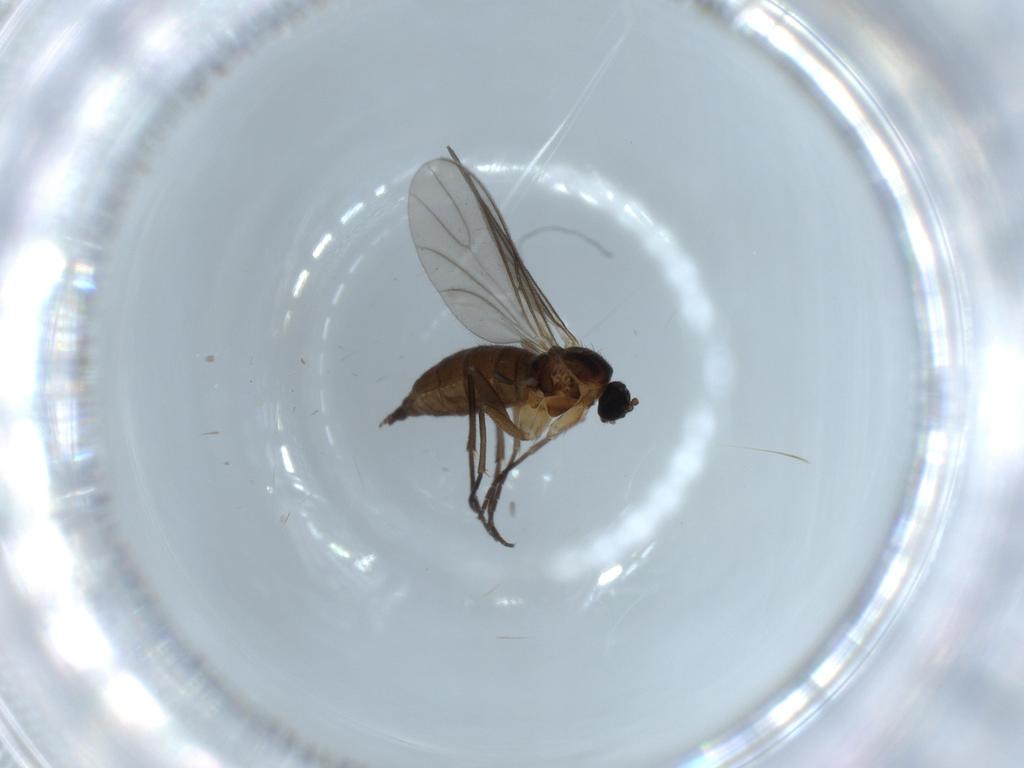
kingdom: Animalia
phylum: Arthropoda
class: Insecta
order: Diptera
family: Sciaridae
